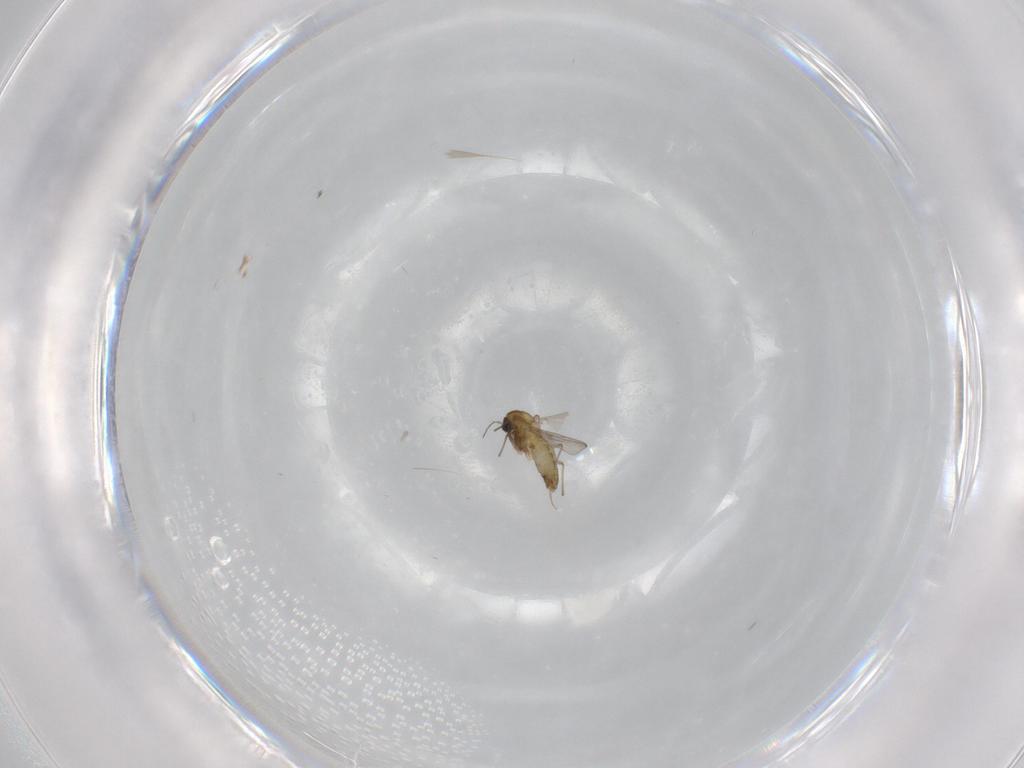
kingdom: Animalia
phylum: Arthropoda
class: Insecta
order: Diptera
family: Chironomidae
